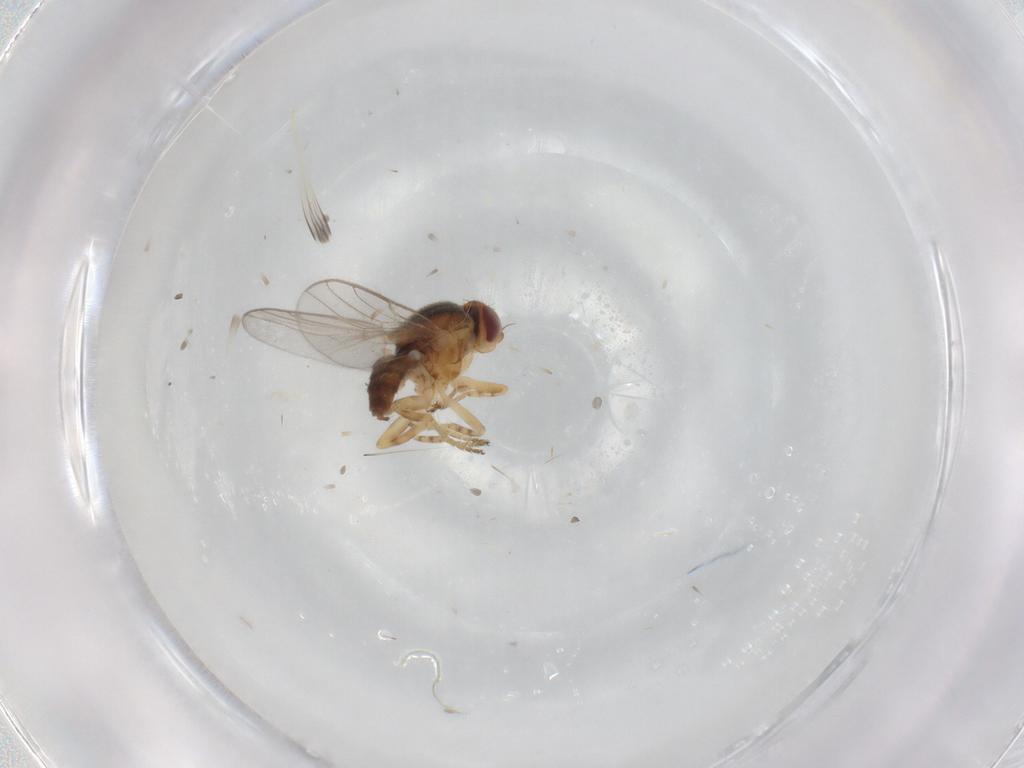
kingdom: Animalia
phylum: Arthropoda
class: Insecta
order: Diptera
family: Chloropidae
